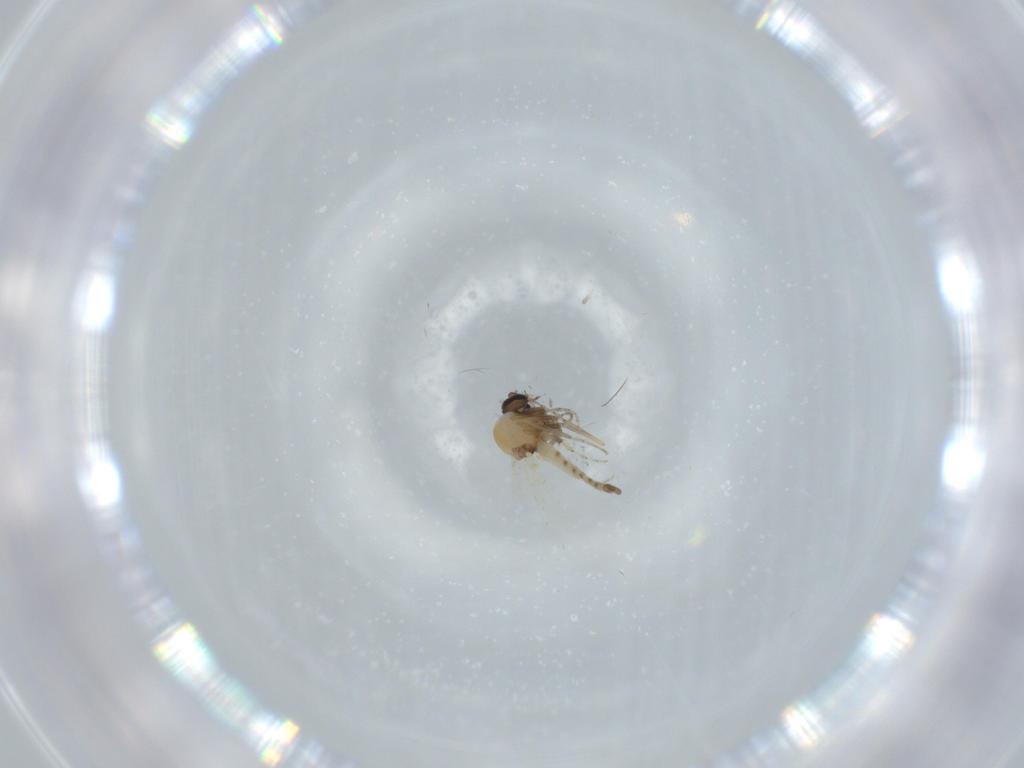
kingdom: Animalia
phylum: Arthropoda
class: Insecta
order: Diptera
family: Ceratopogonidae
